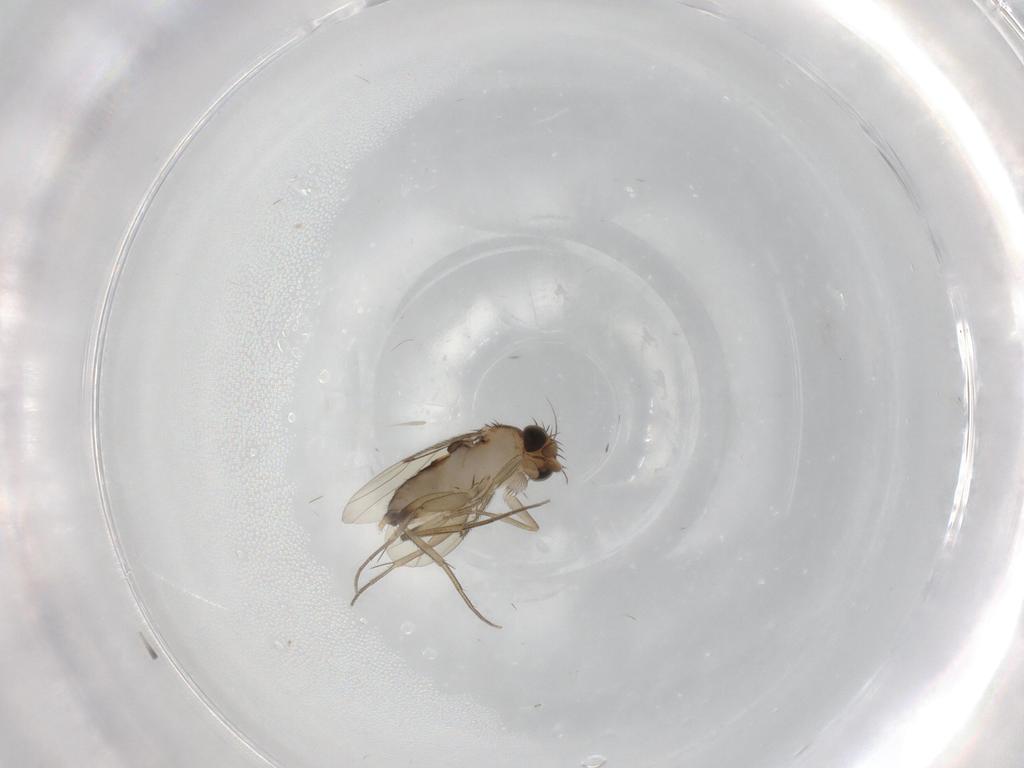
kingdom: Animalia
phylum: Arthropoda
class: Insecta
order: Diptera
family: Phoridae
